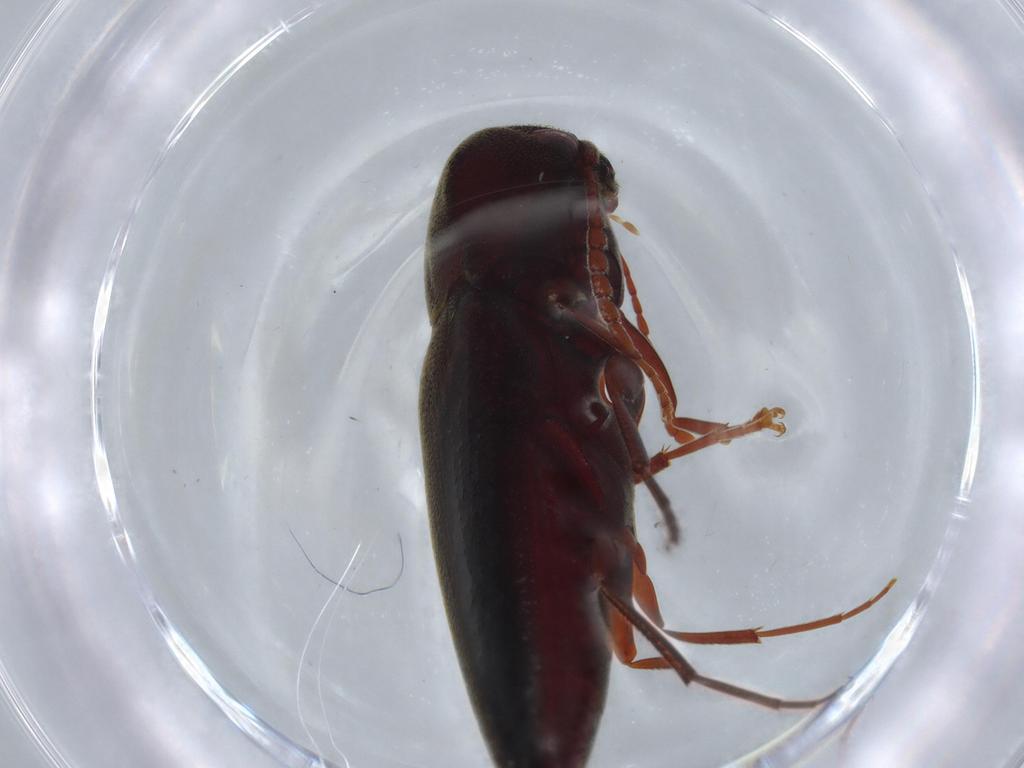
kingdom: Animalia
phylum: Arthropoda
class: Insecta
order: Coleoptera
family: Eucnemidae
